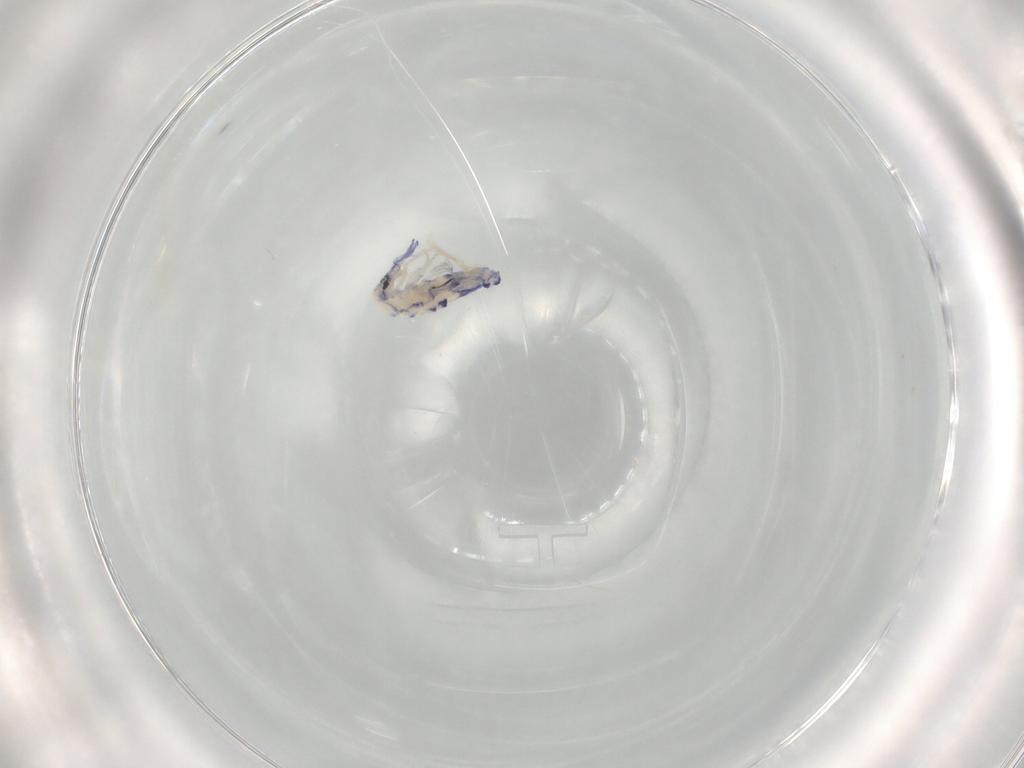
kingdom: Animalia
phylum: Arthropoda
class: Collembola
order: Entomobryomorpha
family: Entomobryidae
